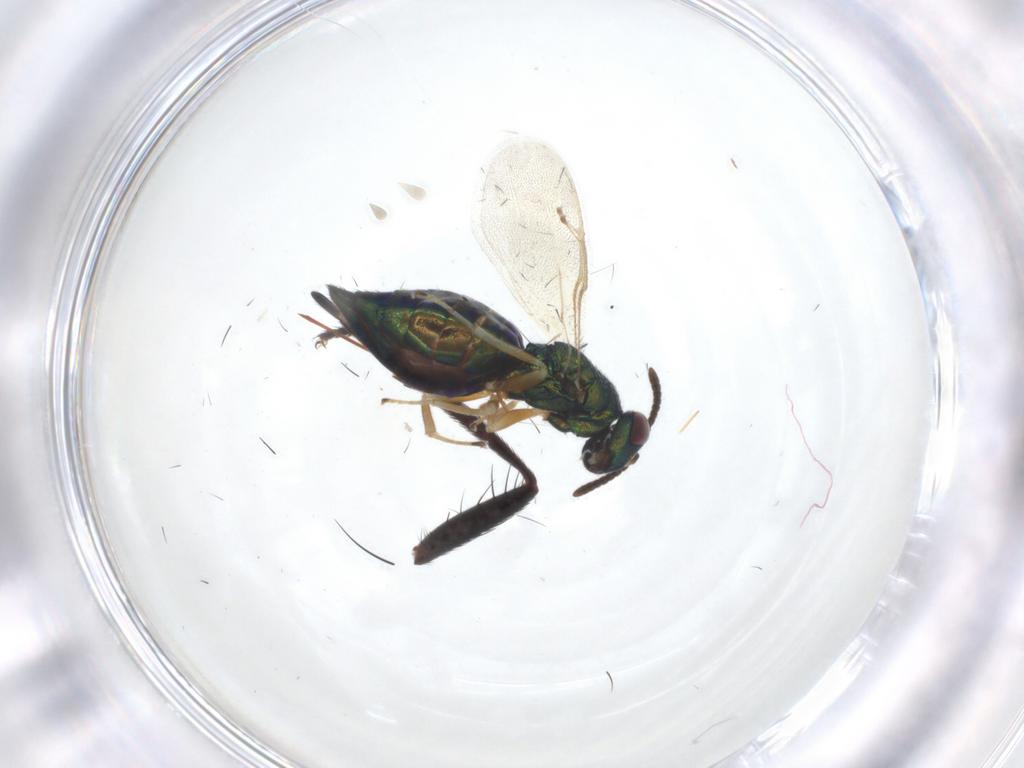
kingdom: Animalia
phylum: Arthropoda
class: Insecta
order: Hymenoptera
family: Pteromalidae
